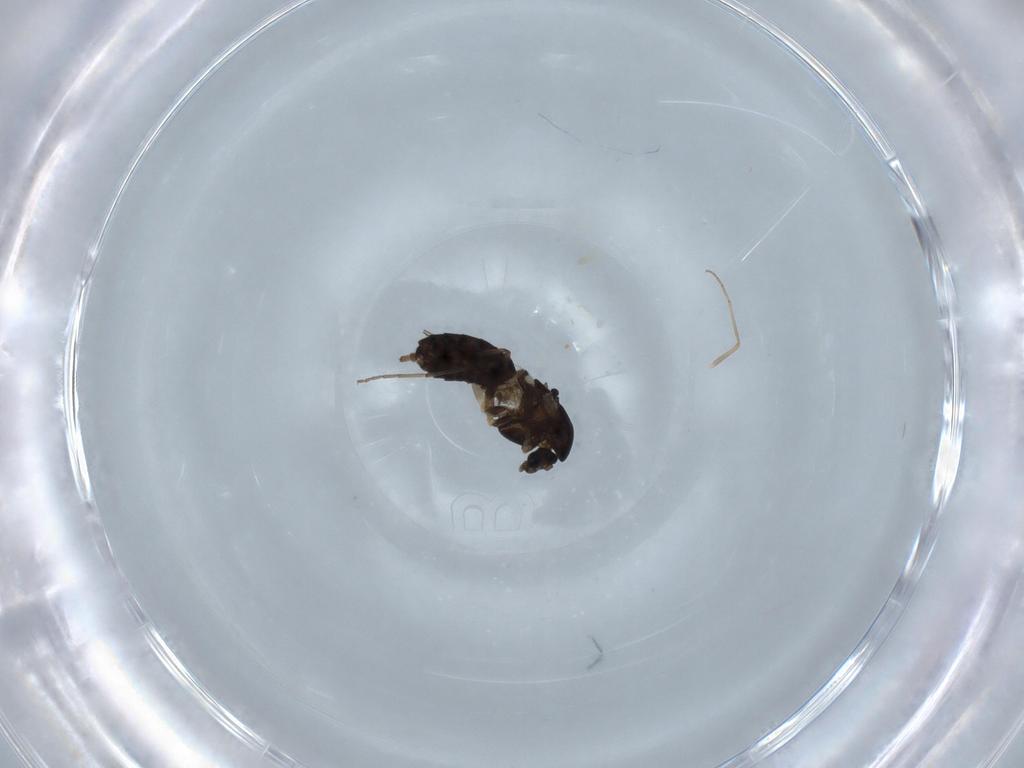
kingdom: Animalia
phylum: Arthropoda
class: Insecta
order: Diptera
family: Chironomidae
